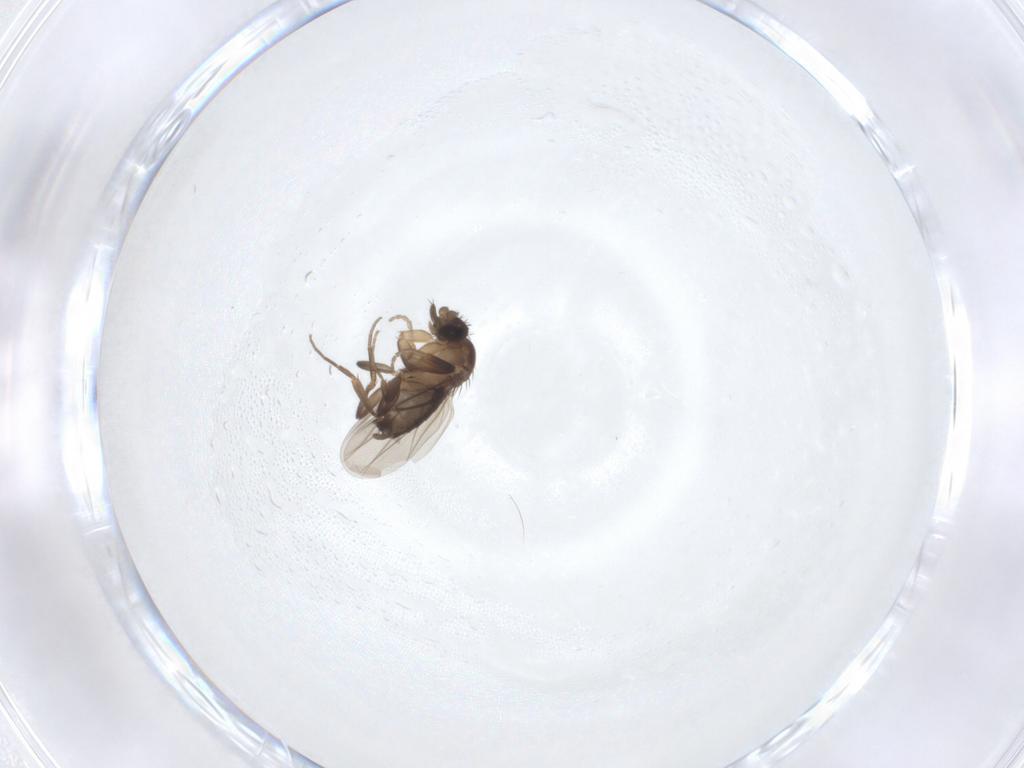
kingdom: Animalia
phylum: Arthropoda
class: Insecta
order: Diptera
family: Phoridae
